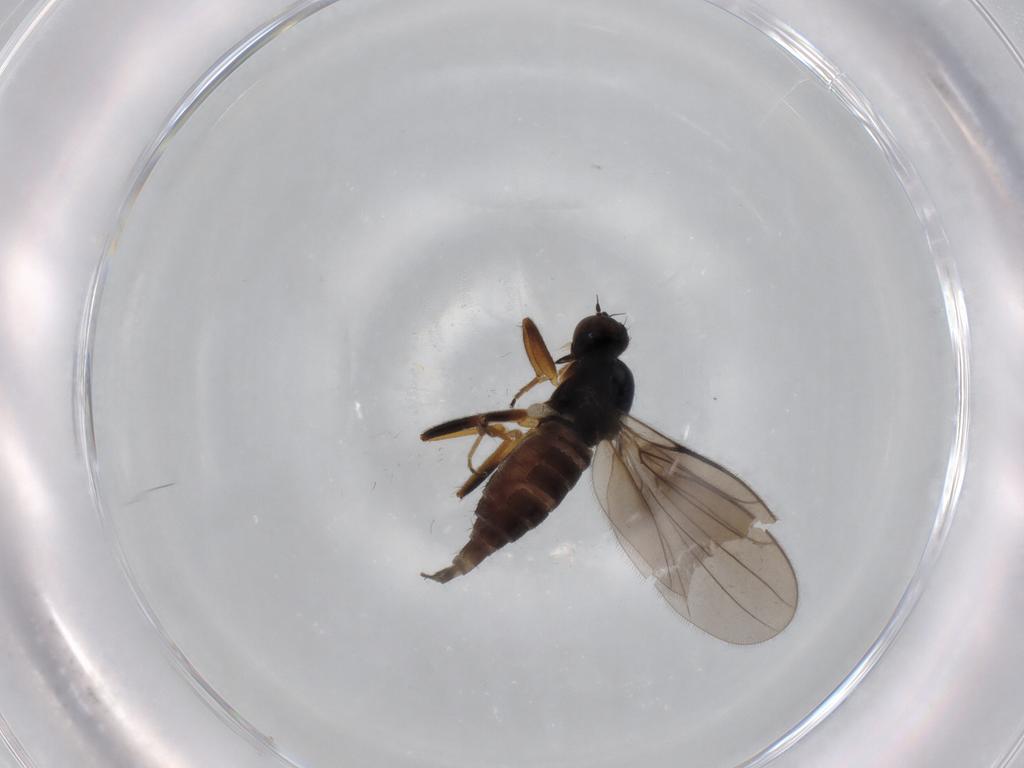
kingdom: Animalia
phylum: Arthropoda
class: Insecta
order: Diptera
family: Hybotidae
